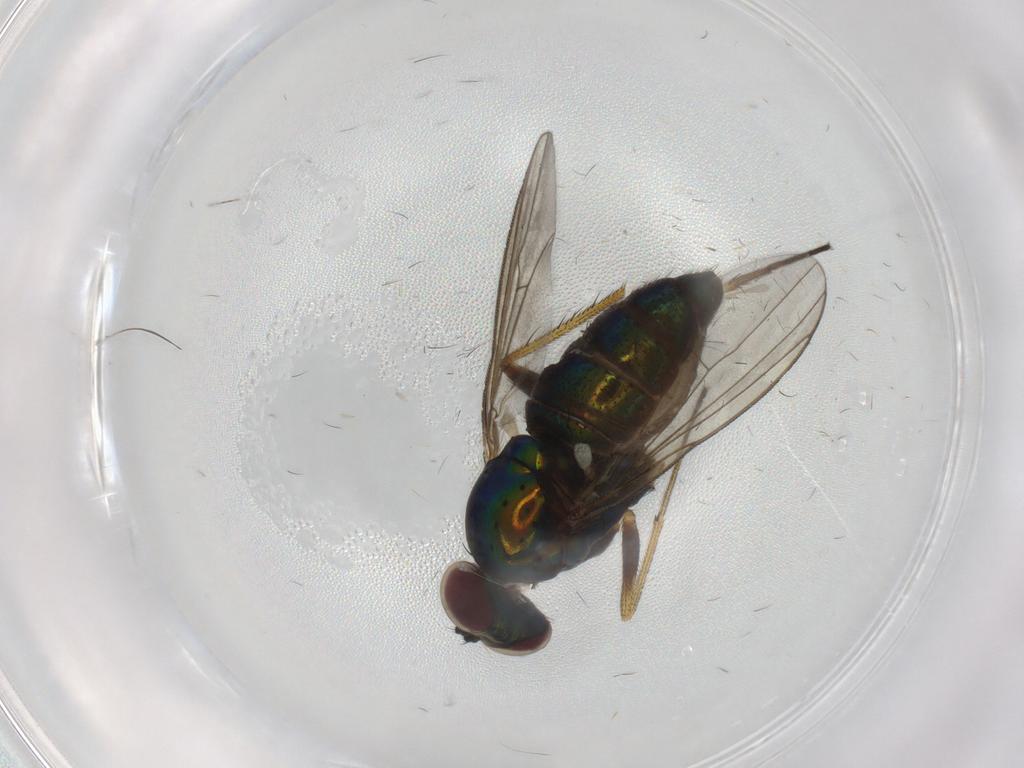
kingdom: Animalia
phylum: Arthropoda
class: Insecta
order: Diptera
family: Dolichopodidae
